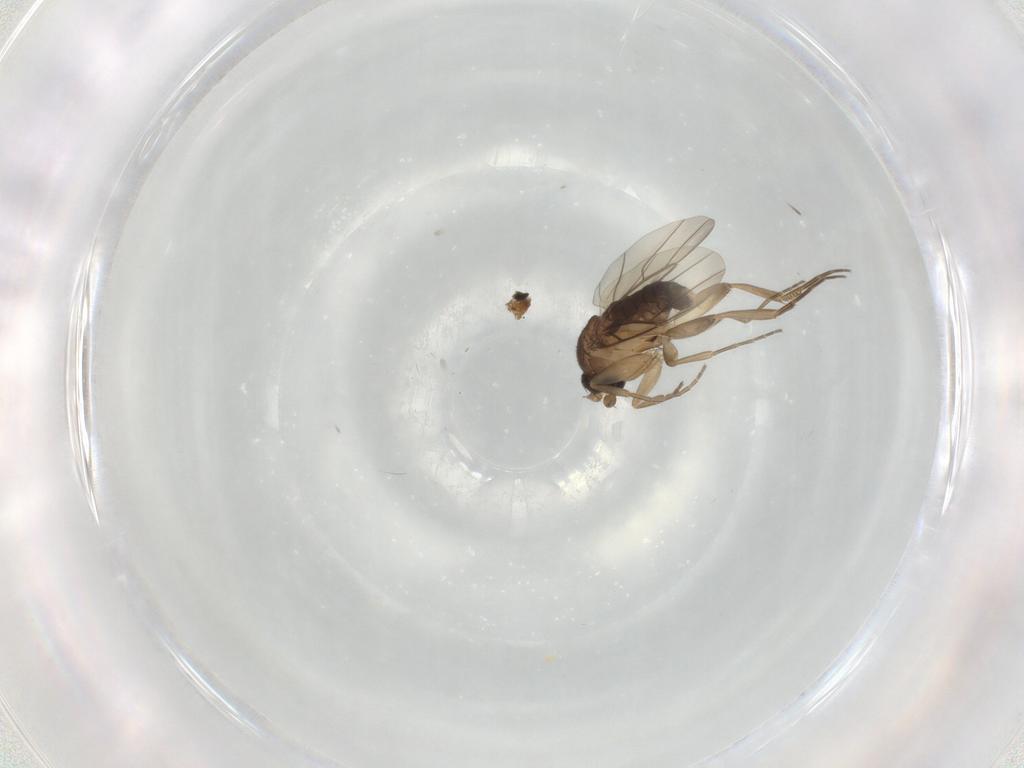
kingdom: Animalia
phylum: Arthropoda
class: Insecta
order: Diptera
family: Phoridae
